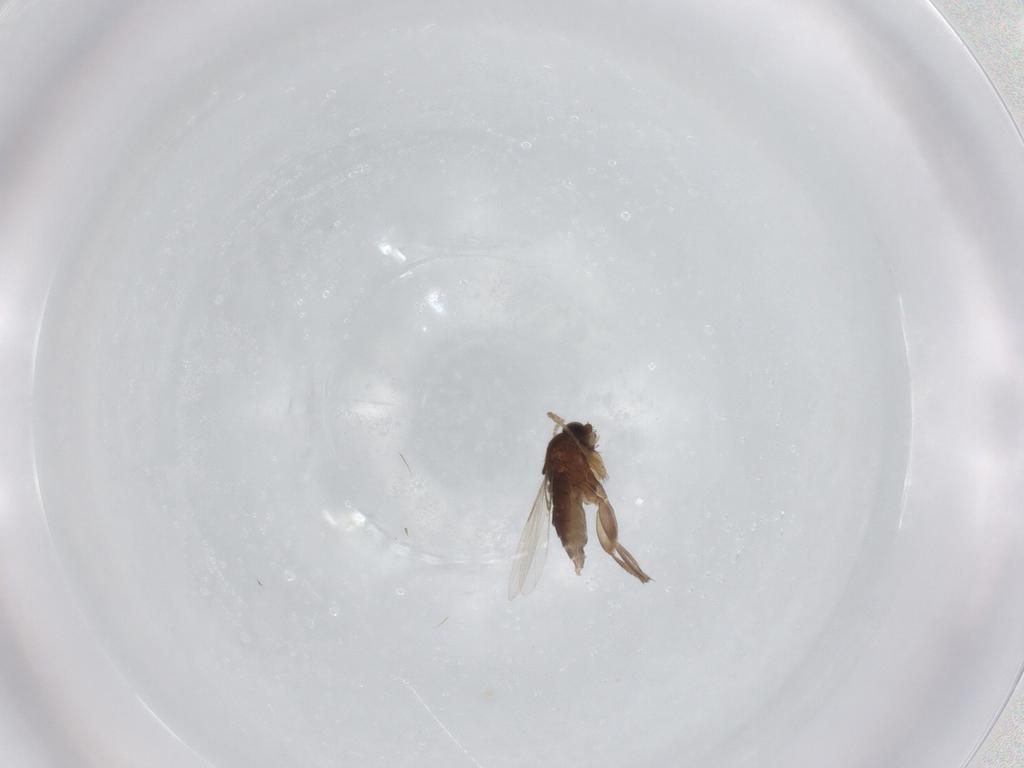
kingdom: Animalia
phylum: Arthropoda
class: Insecta
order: Diptera
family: Phoridae
